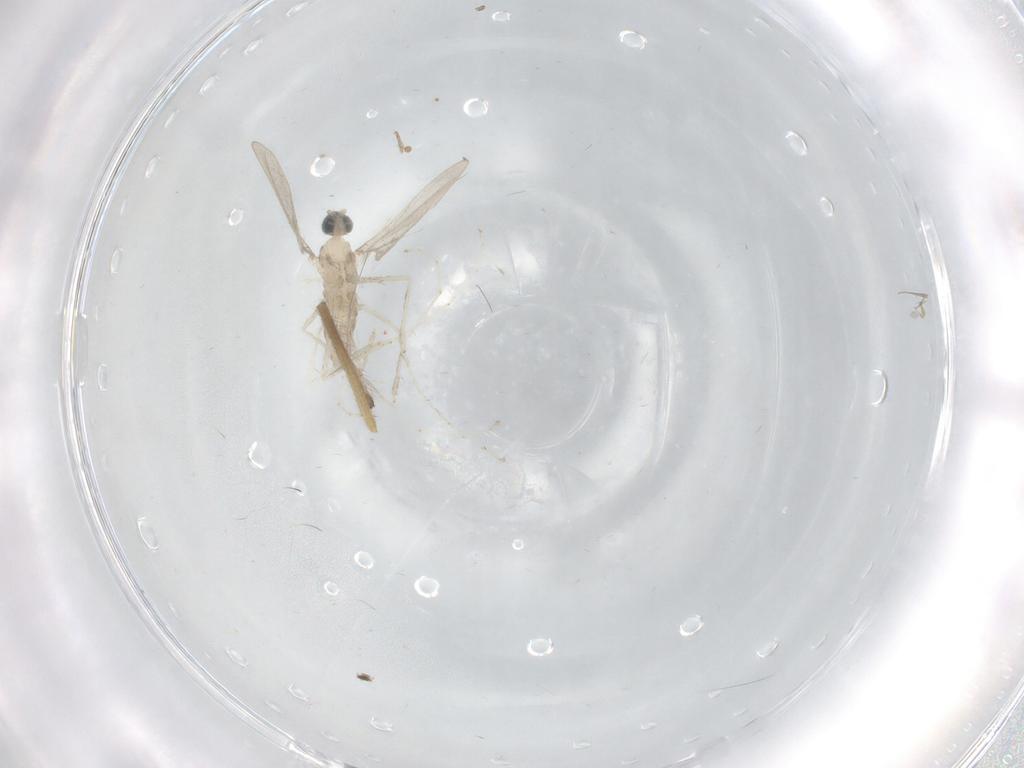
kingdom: Animalia
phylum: Arthropoda
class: Insecta
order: Diptera
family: Cecidomyiidae
